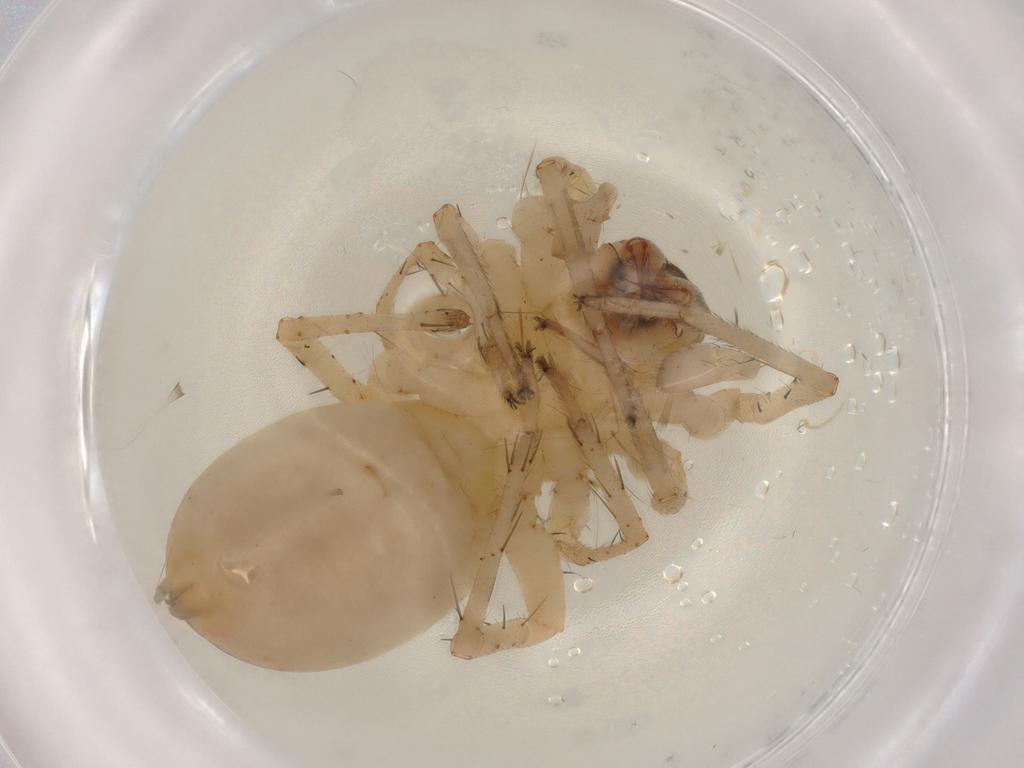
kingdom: Animalia
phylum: Arthropoda
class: Arachnida
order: Araneae
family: Anyphaenidae
